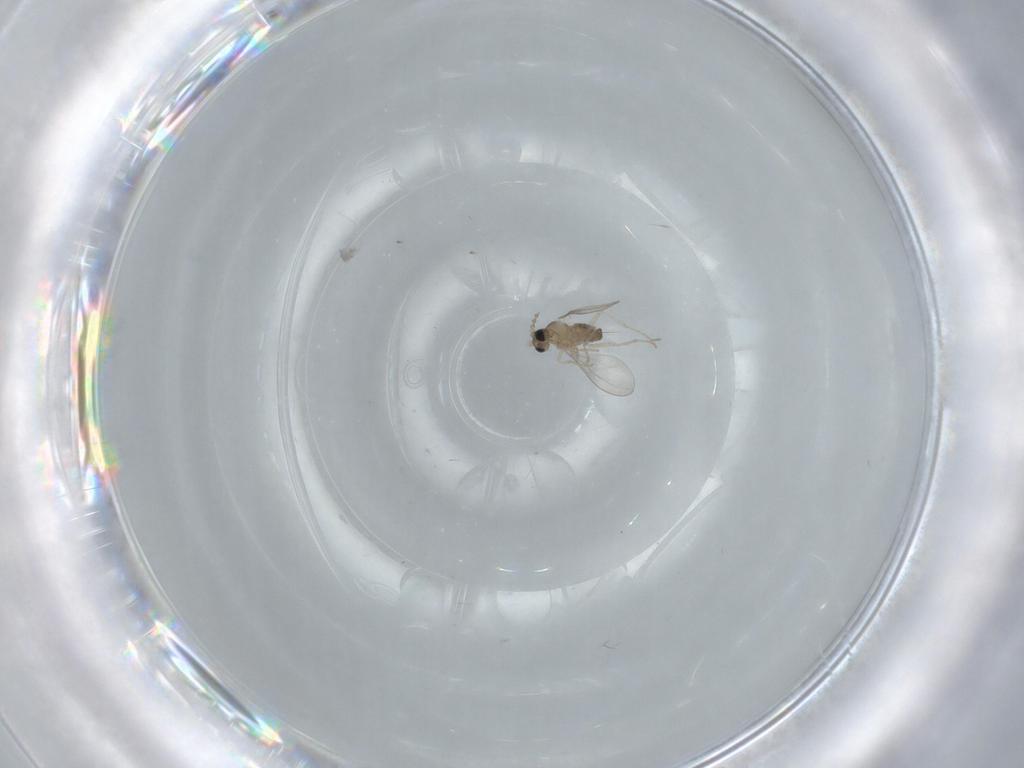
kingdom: Animalia
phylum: Arthropoda
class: Insecta
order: Diptera
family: Cecidomyiidae
